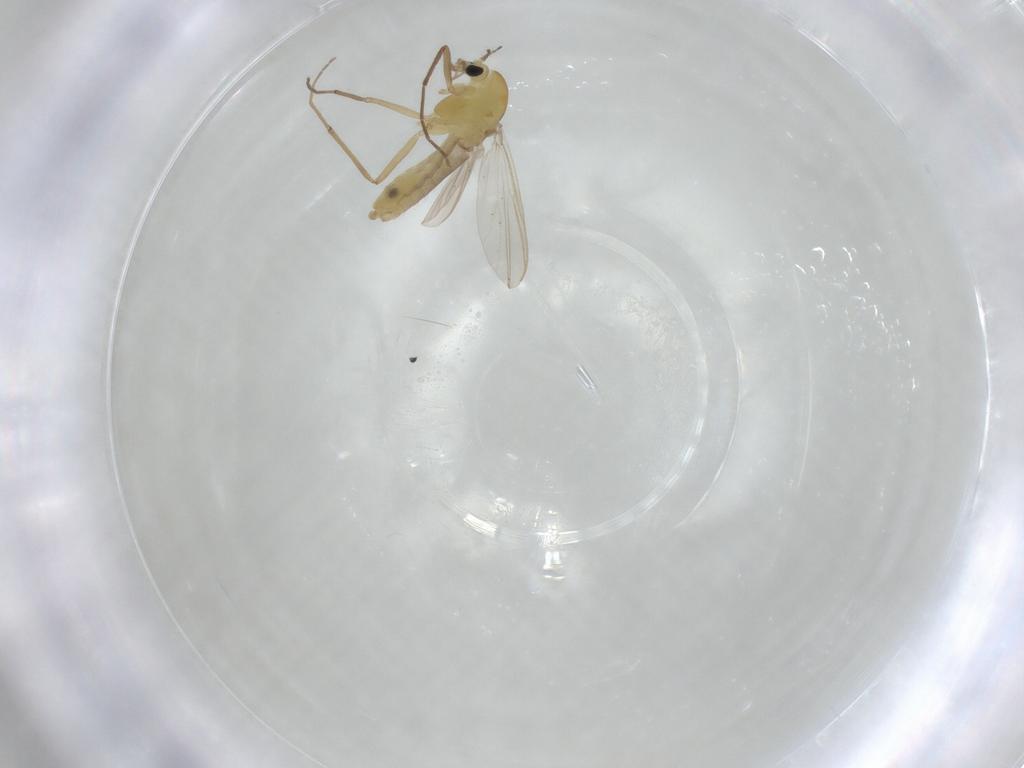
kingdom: Animalia
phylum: Arthropoda
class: Insecta
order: Diptera
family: Chironomidae
